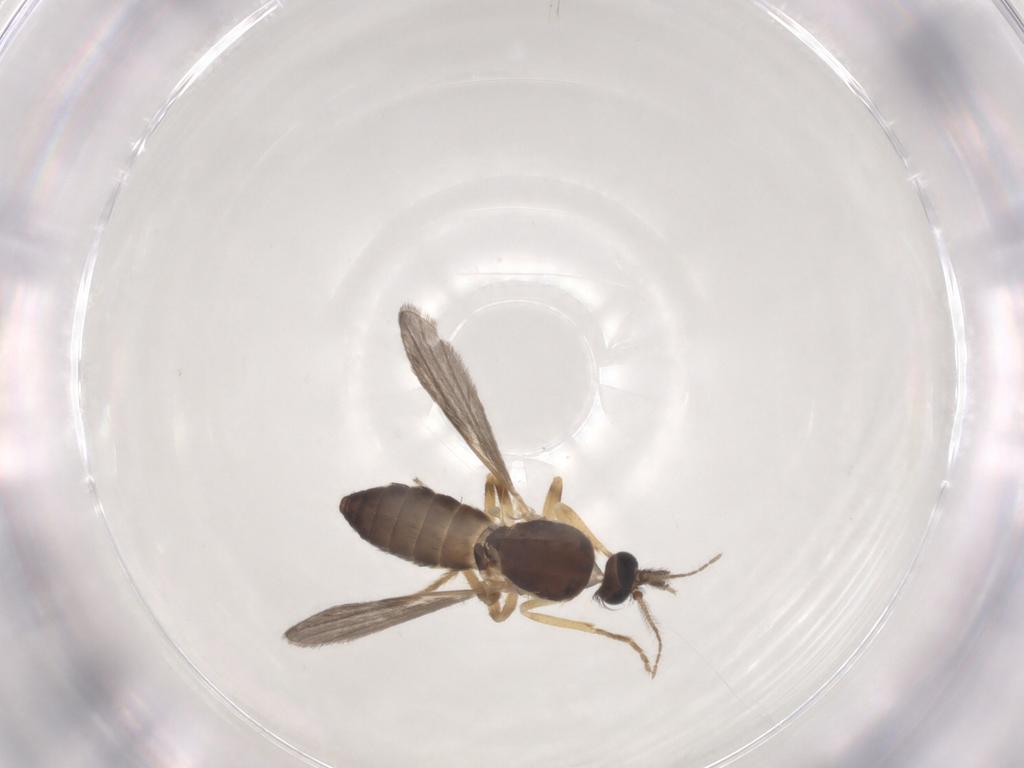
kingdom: Animalia
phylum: Arthropoda
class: Insecta
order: Diptera
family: Ceratopogonidae
